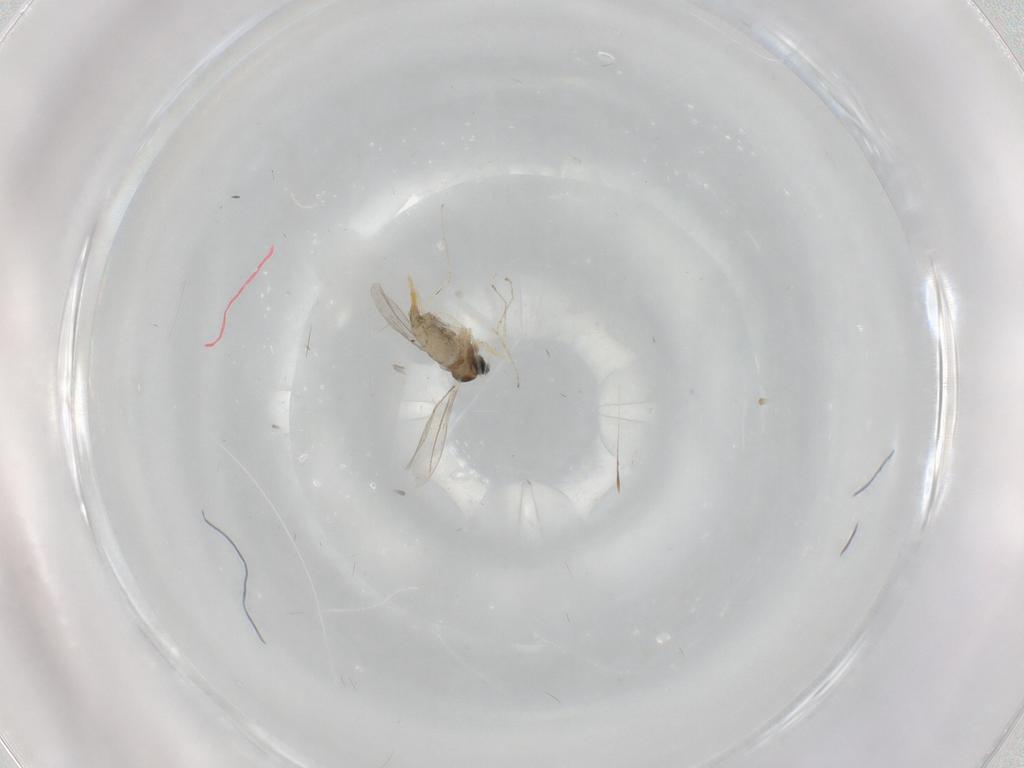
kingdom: Animalia
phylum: Arthropoda
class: Insecta
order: Diptera
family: Cecidomyiidae
